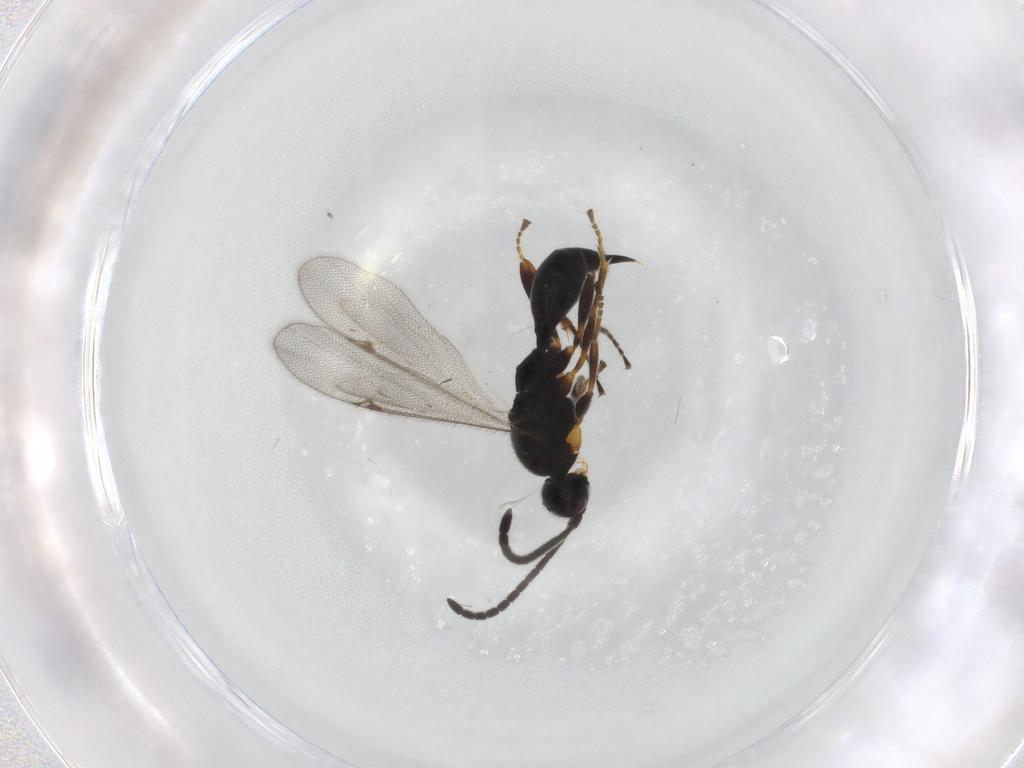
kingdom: Animalia
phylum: Arthropoda
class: Insecta
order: Hymenoptera
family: Proctotrupidae
